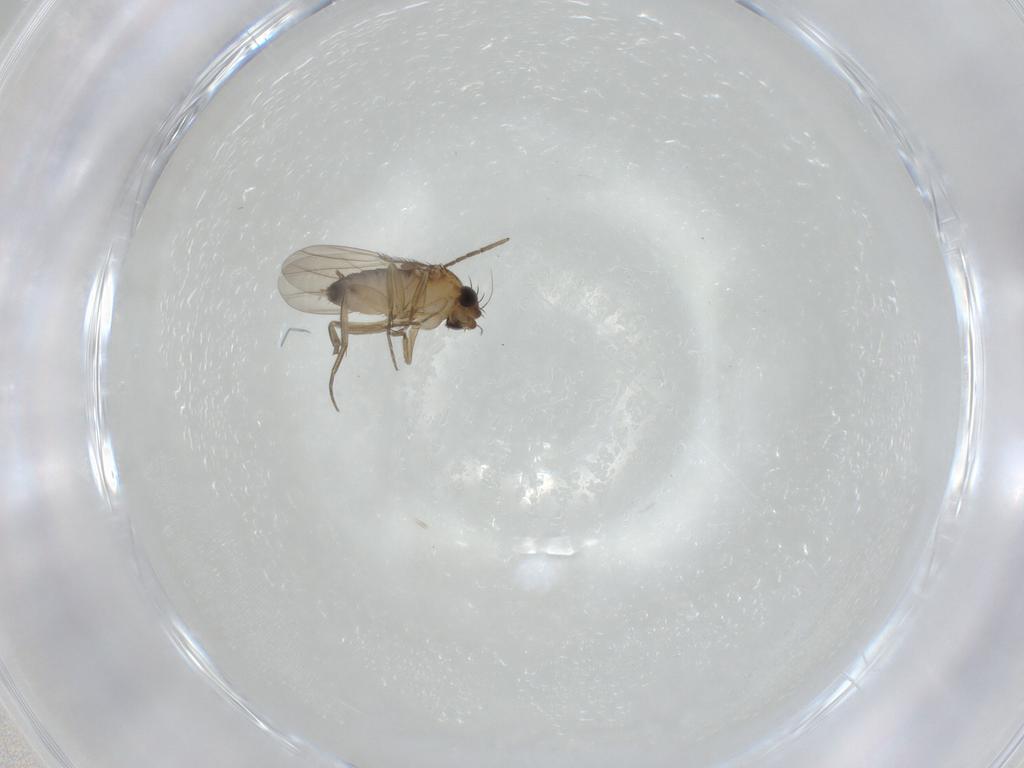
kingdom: Animalia
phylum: Arthropoda
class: Insecta
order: Diptera
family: Phoridae
